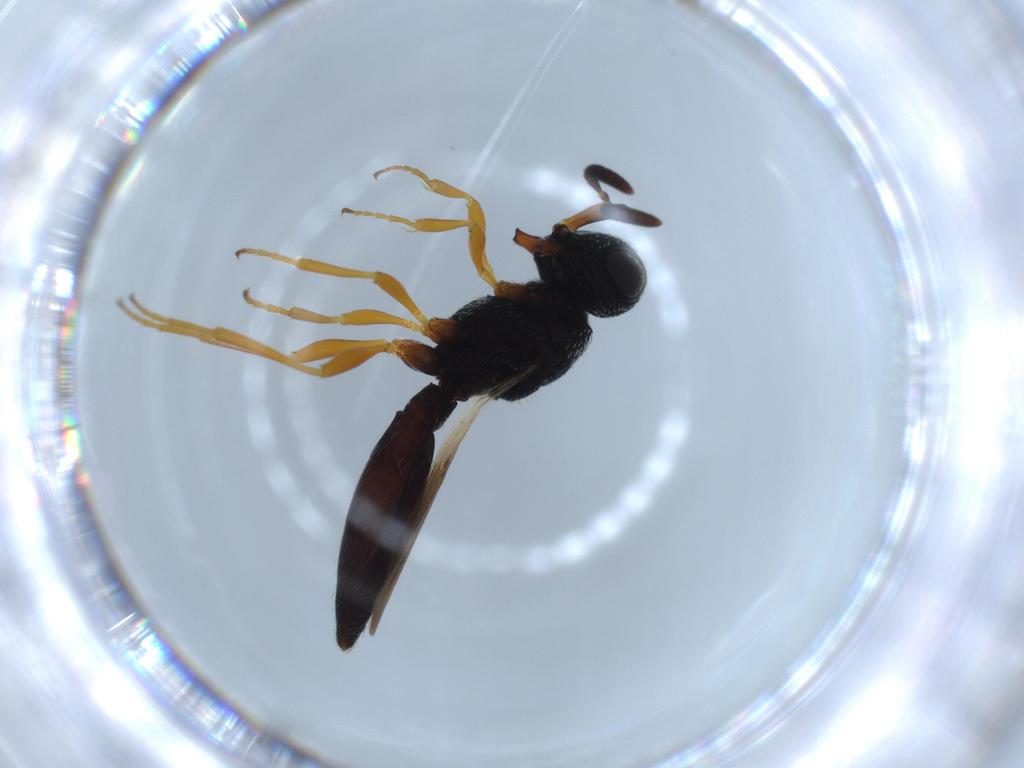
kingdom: Animalia
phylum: Arthropoda
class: Insecta
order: Hymenoptera
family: Scelionidae
